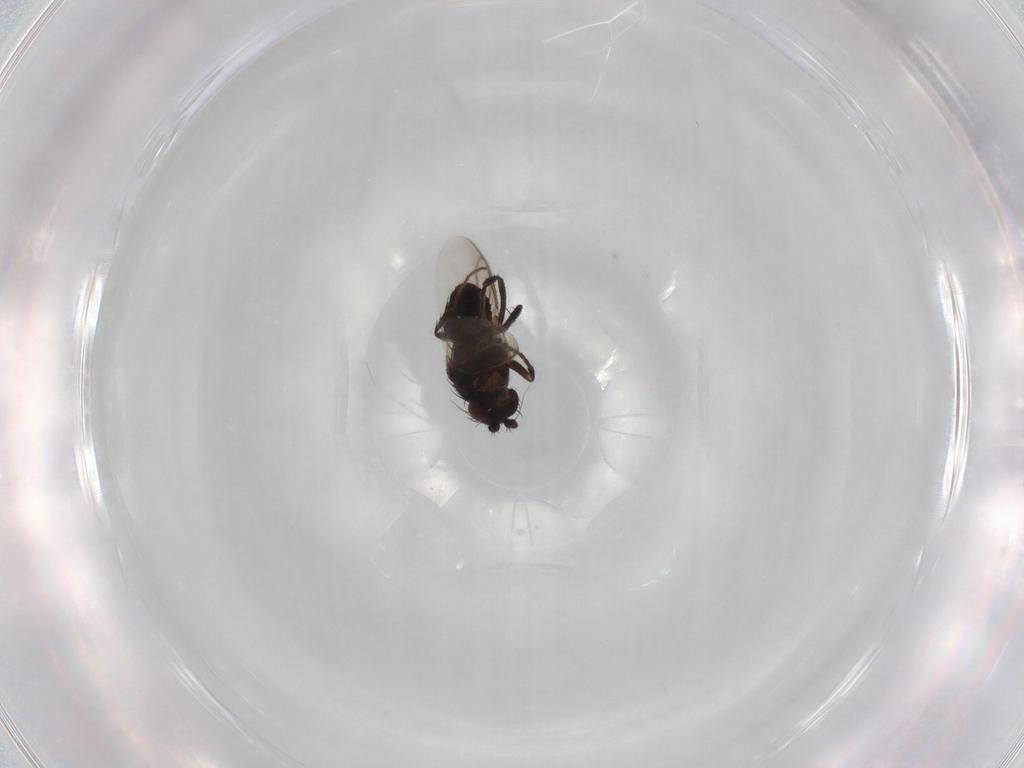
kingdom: Animalia
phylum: Arthropoda
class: Insecta
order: Diptera
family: Sphaeroceridae
